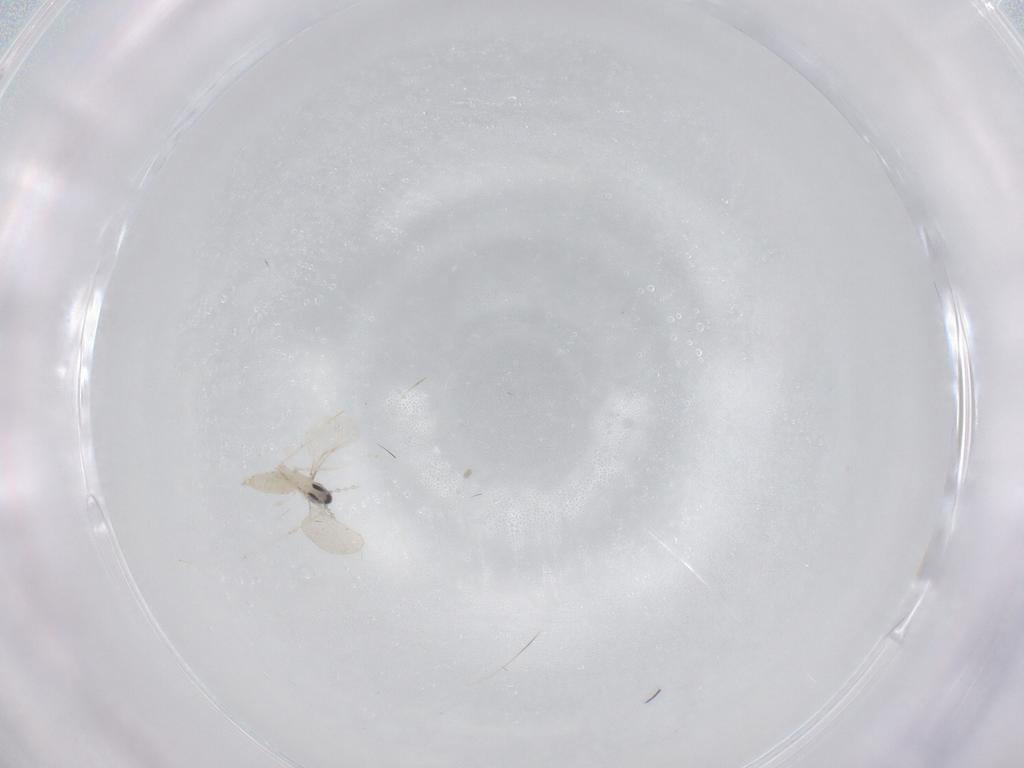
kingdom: Animalia
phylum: Arthropoda
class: Insecta
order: Diptera
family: Cecidomyiidae
